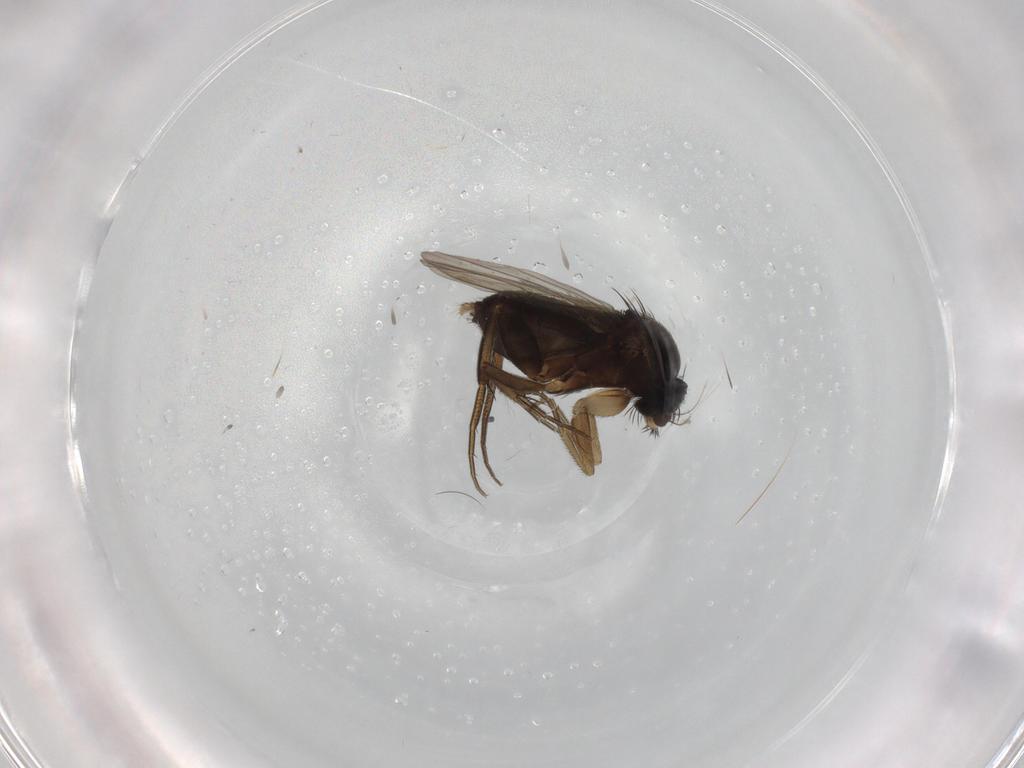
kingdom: Animalia
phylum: Arthropoda
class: Insecta
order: Diptera
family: Phoridae
